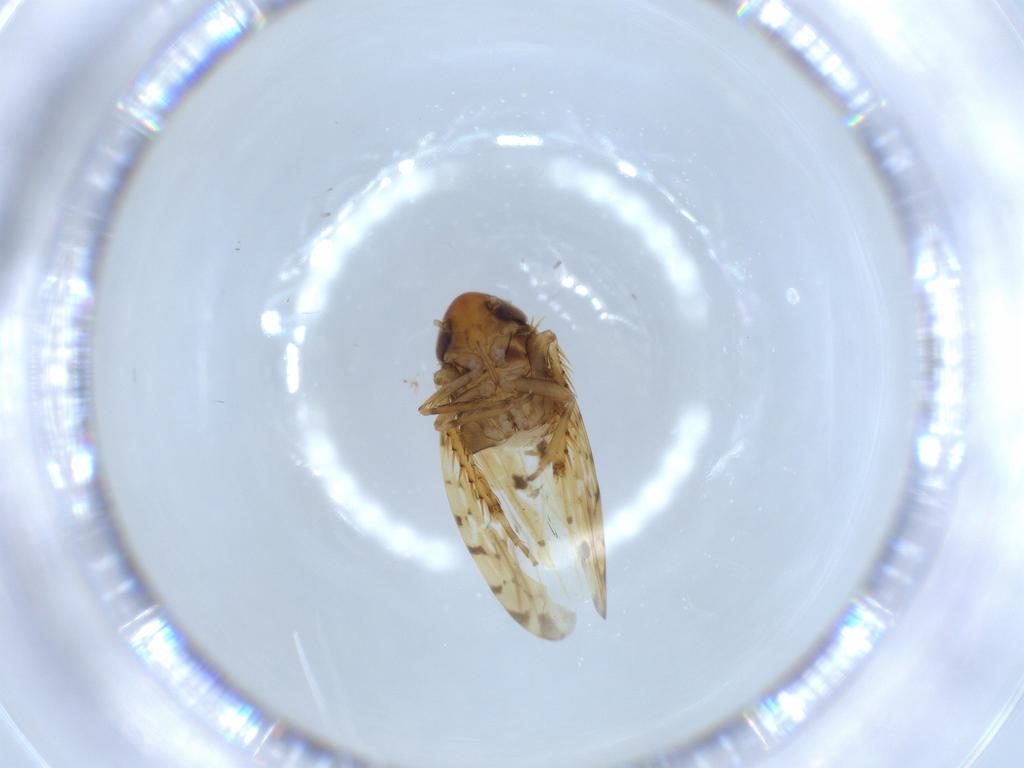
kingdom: Animalia
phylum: Arthropoda
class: Insecta
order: Hemiptera
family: Cicadellidae
